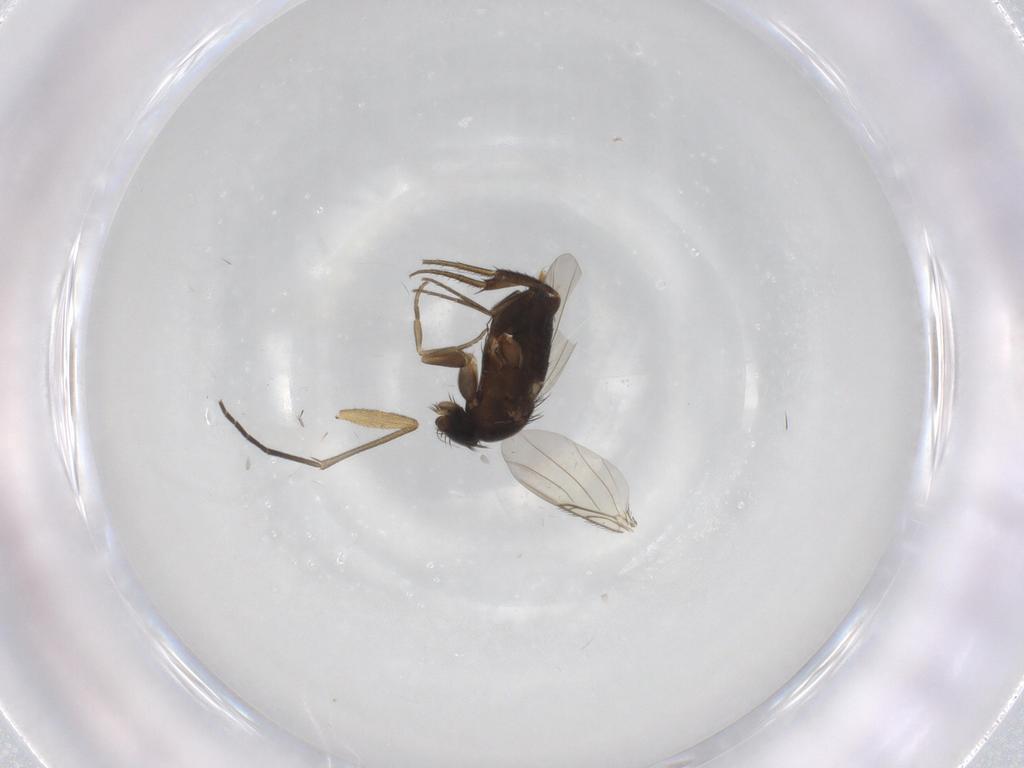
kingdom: Animalia
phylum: Arthropoda
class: Insecta
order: Diptera
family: Phoridae
